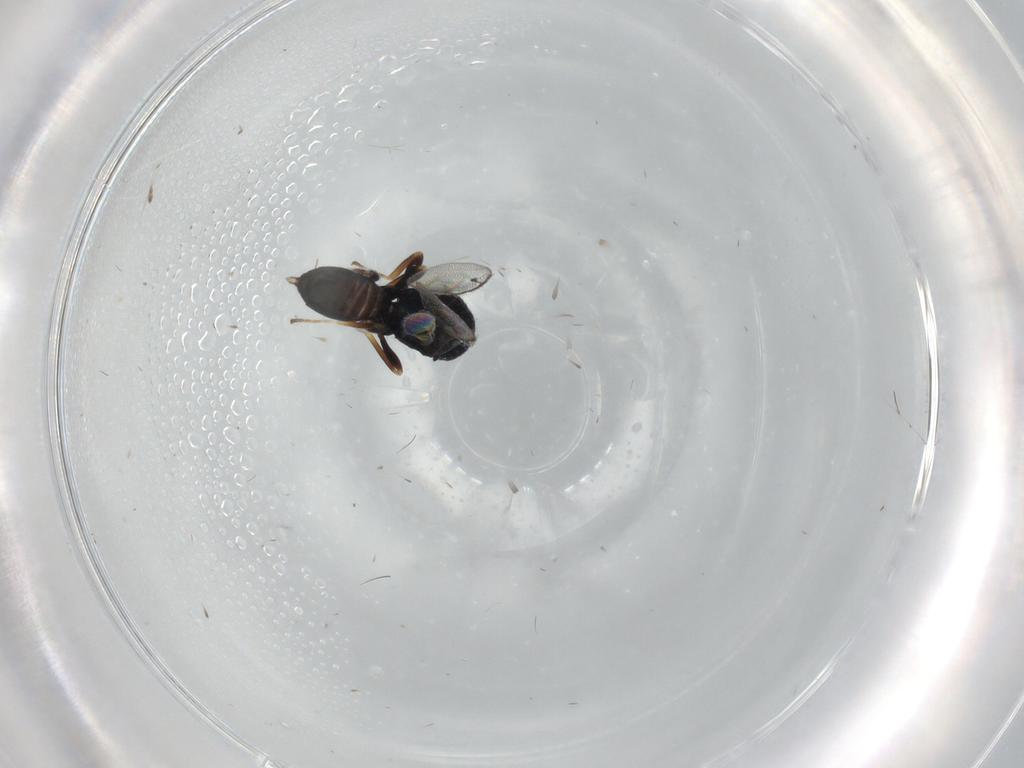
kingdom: Animalia
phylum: Arthropoda
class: Insecta
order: Hymenoptera
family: Pteromalidae
